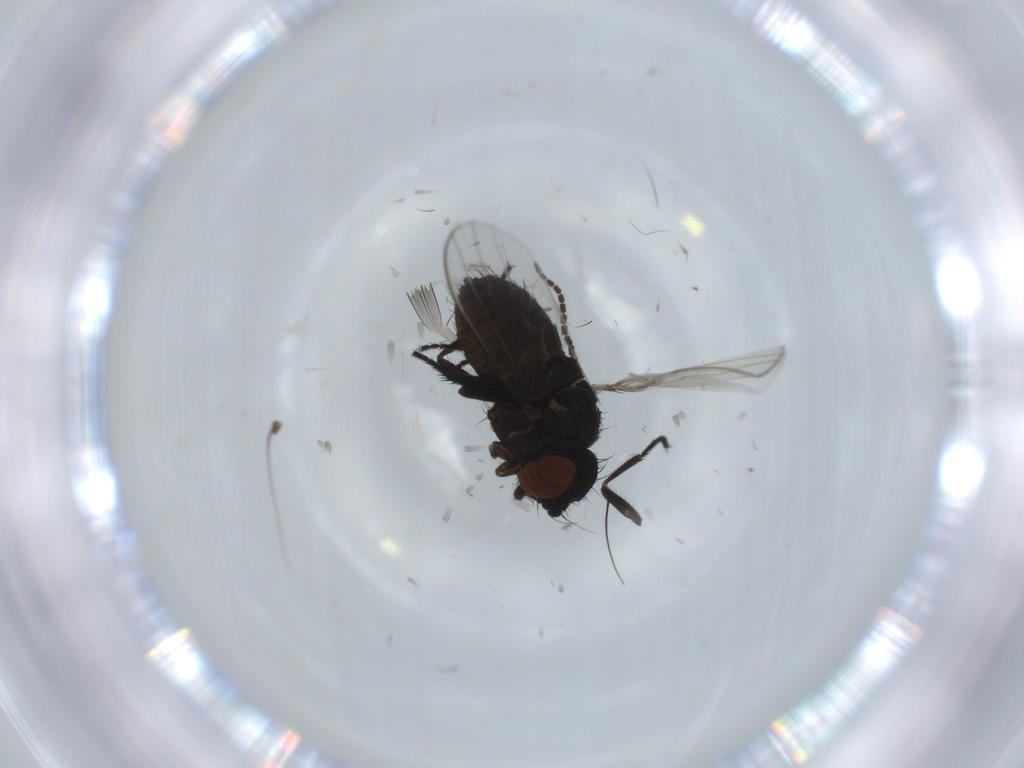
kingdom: Animalia
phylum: Arthropoda
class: Insecta
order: Diptera
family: Milichiidae
